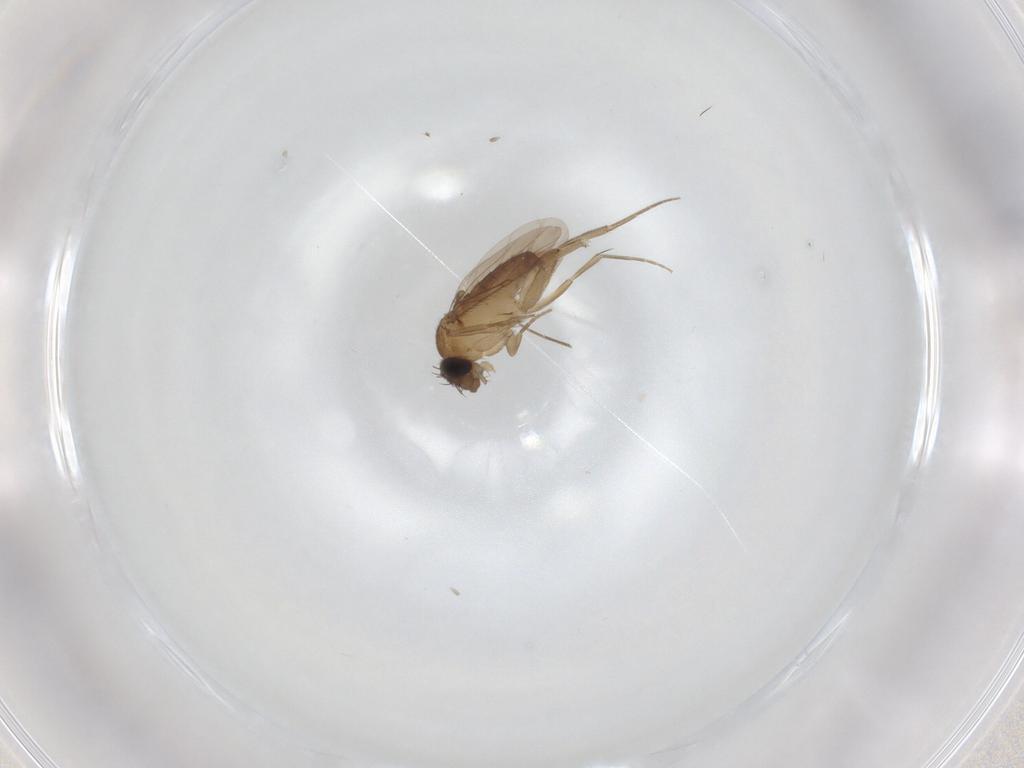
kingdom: Animalia
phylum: Arthropoda
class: Insecta
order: Diptera
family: Phoridae
